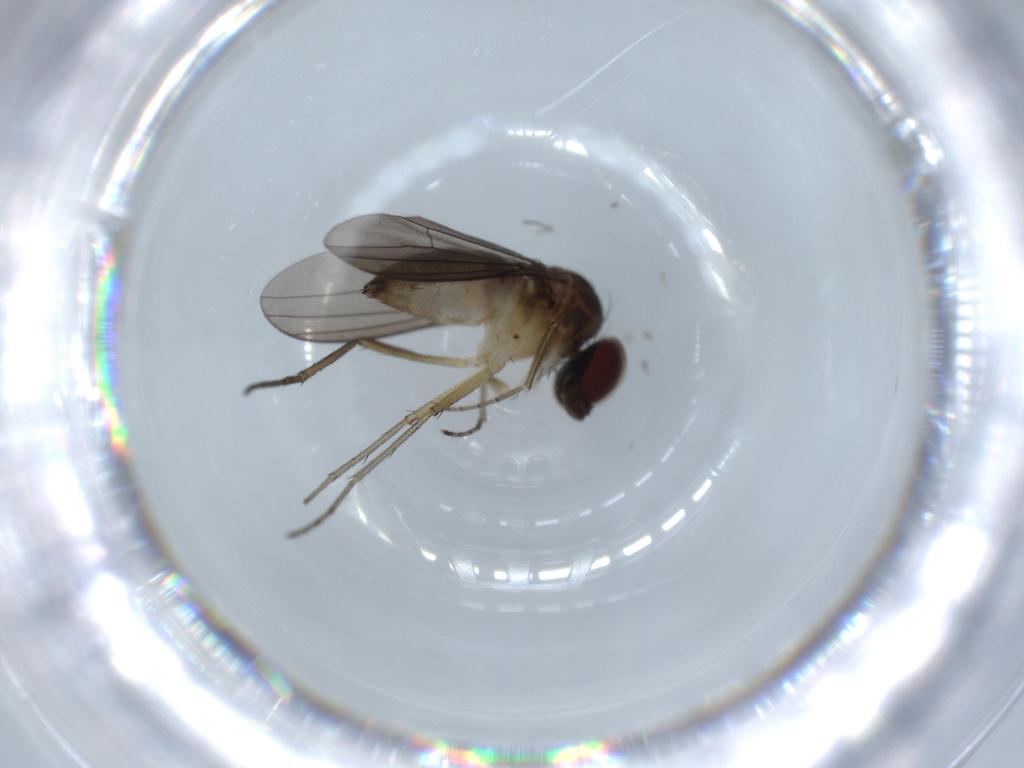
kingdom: Animalia
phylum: Arthropoda
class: Insecta
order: Diptera
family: Dolichopodidae
